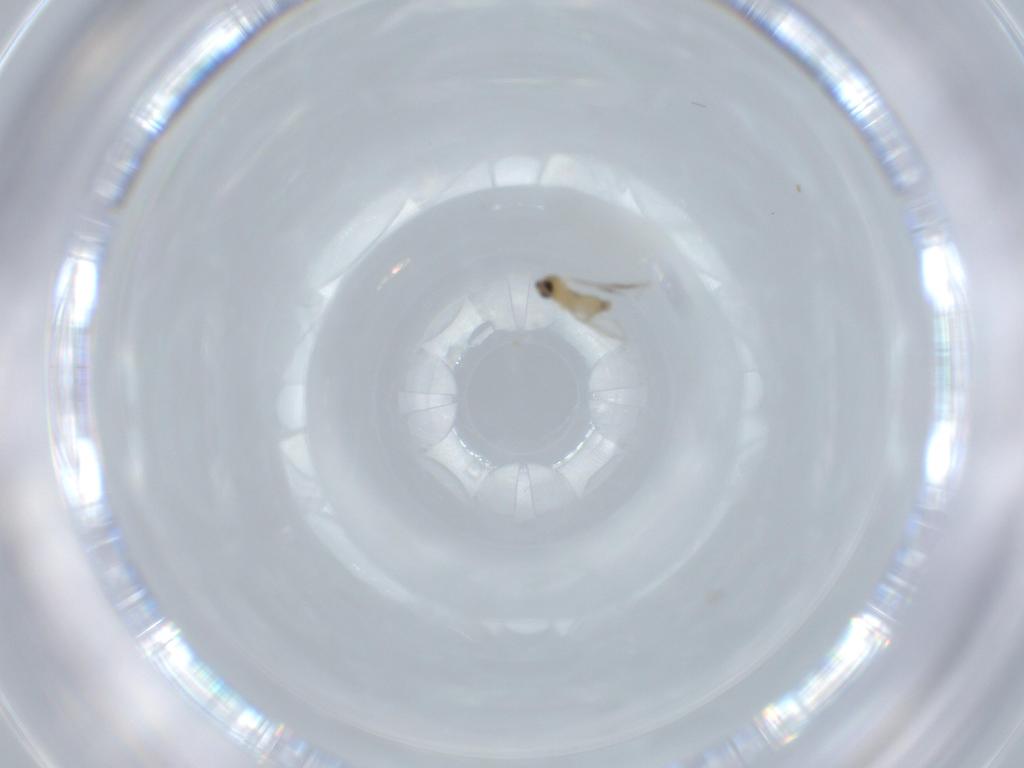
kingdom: Animalia
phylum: Arthropoda
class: Insecta
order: Diptera
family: Cecidomyiidae
